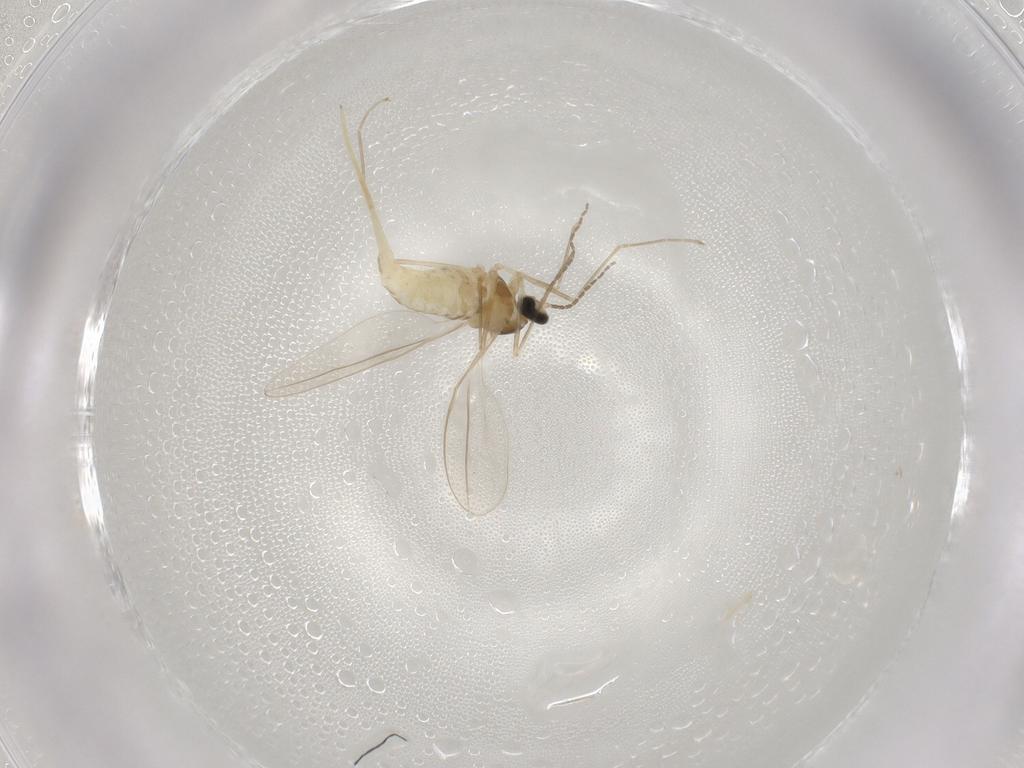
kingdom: Animalia
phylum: Arthropoda
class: Insecta
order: Diptera
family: Cecidomyiidae
